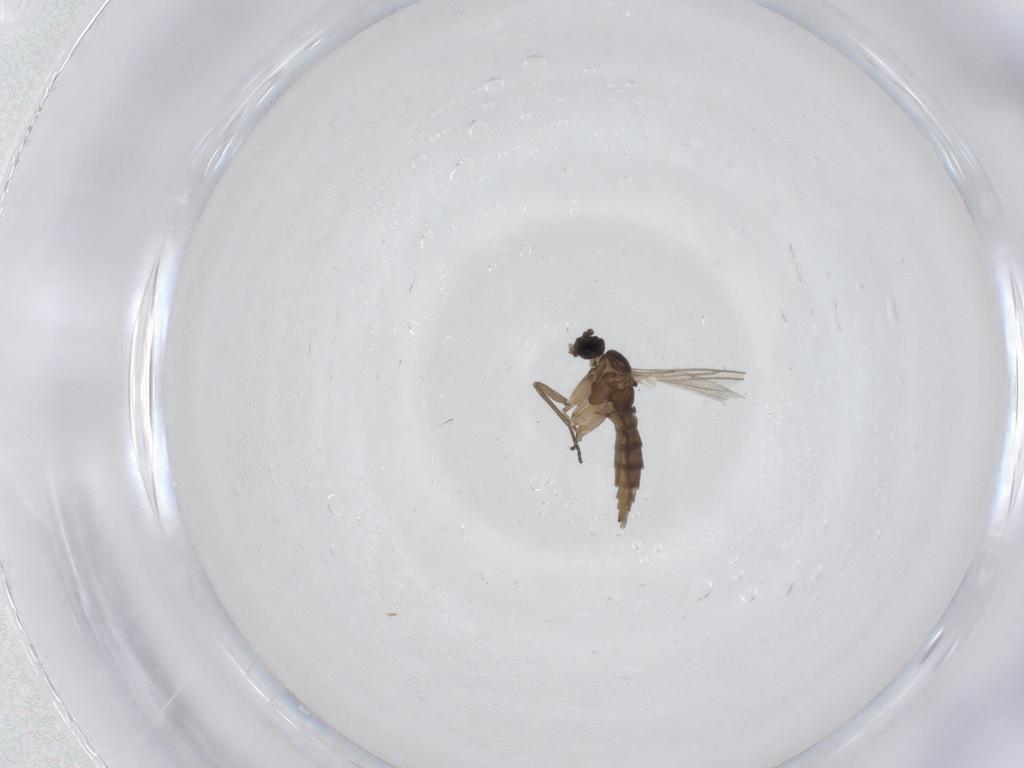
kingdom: Animalia
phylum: Arthropoda
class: Insecta
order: Diptera
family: Sciaridae
